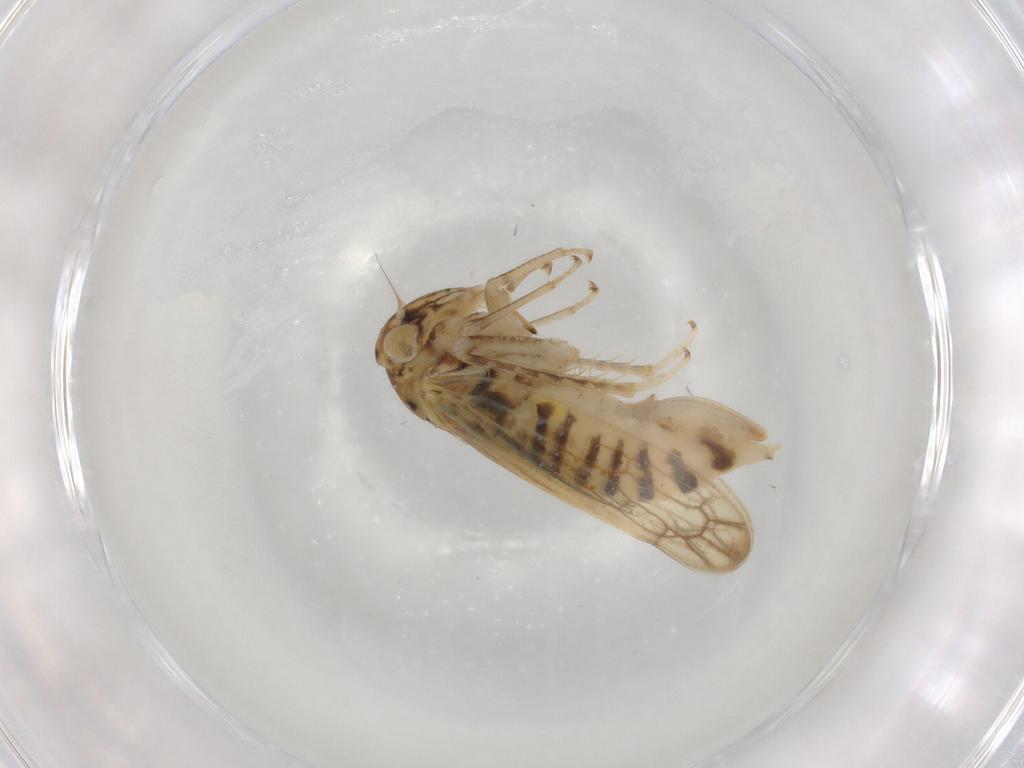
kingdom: Animalia
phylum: Arthropoda
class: Insecta
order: Hemiptera
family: Cicadellidae
